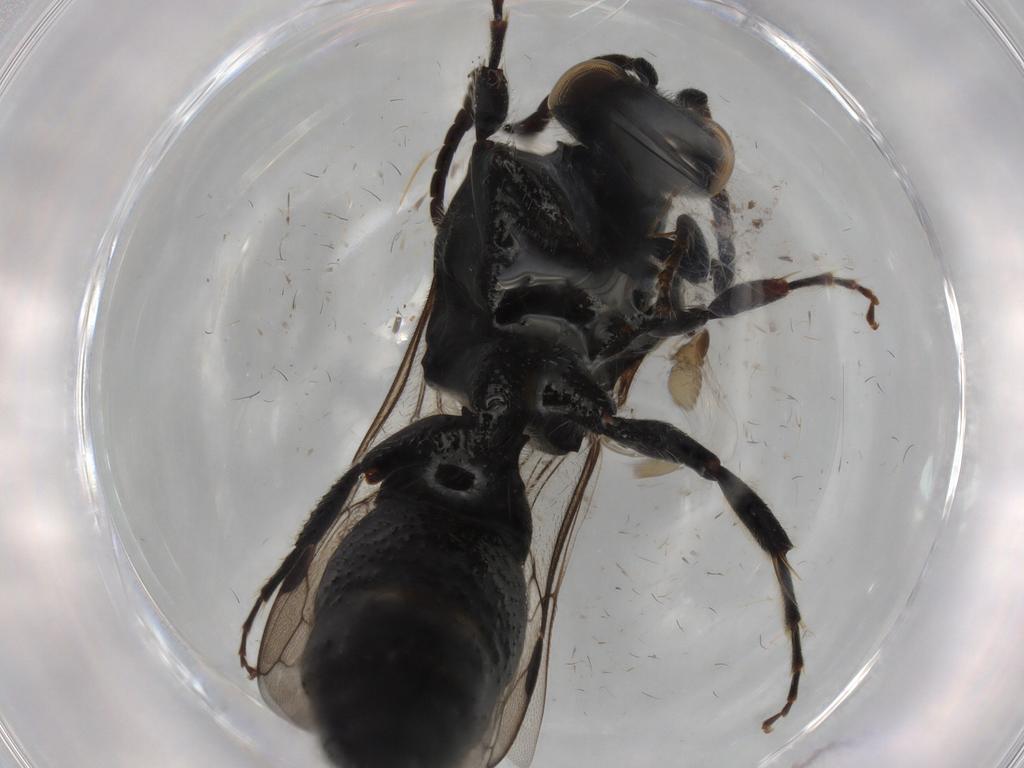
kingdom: Animalia
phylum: Arthropoda
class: Insecta
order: Hymenoptera
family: Tiphiidae
